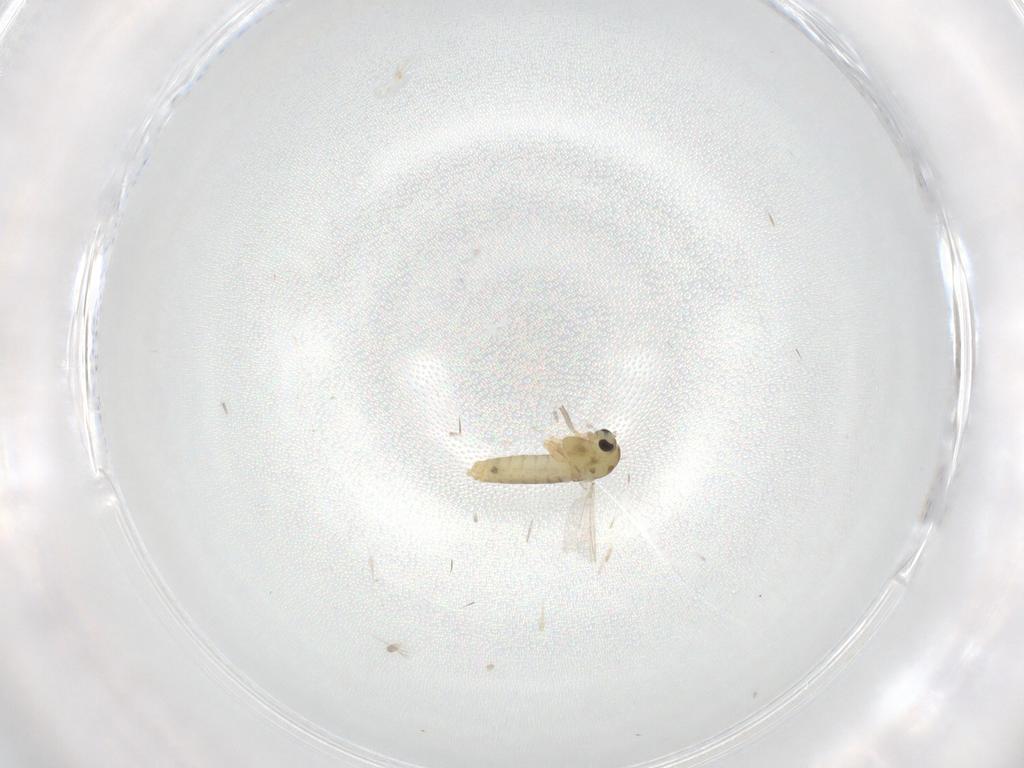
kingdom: Animalia
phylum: Arthropoda
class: Insecta
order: Diptera
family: Chironomidae
